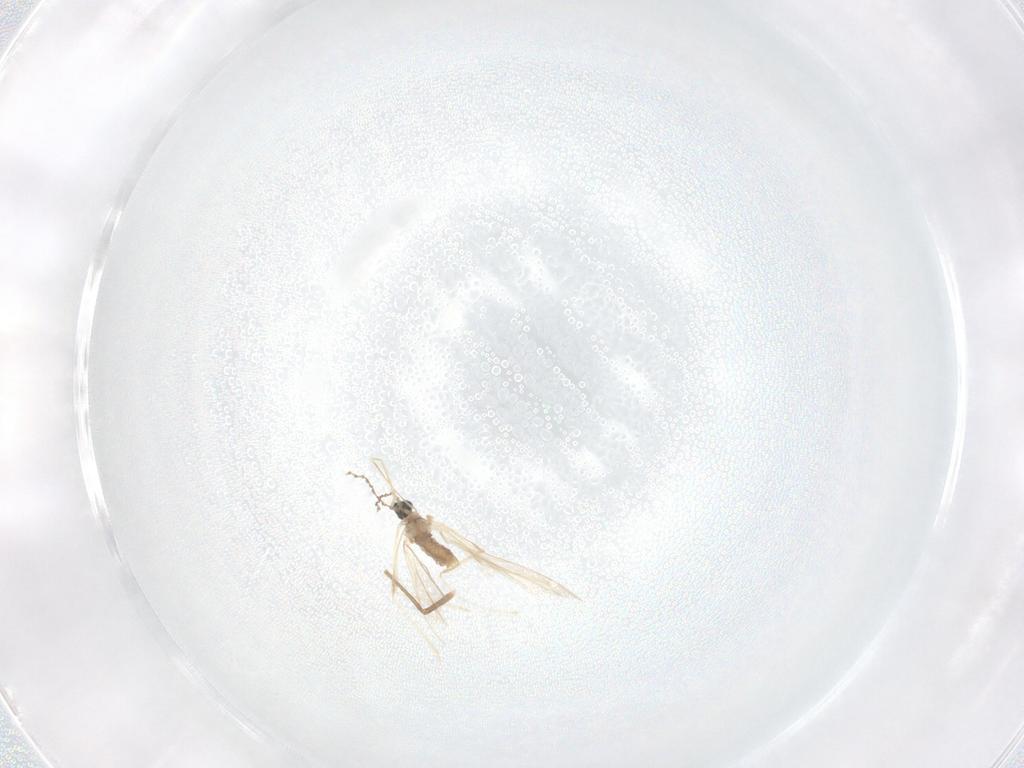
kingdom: Animalia
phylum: Arthropoda
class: Insecta
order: Diptera
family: Cecidomyiidae
